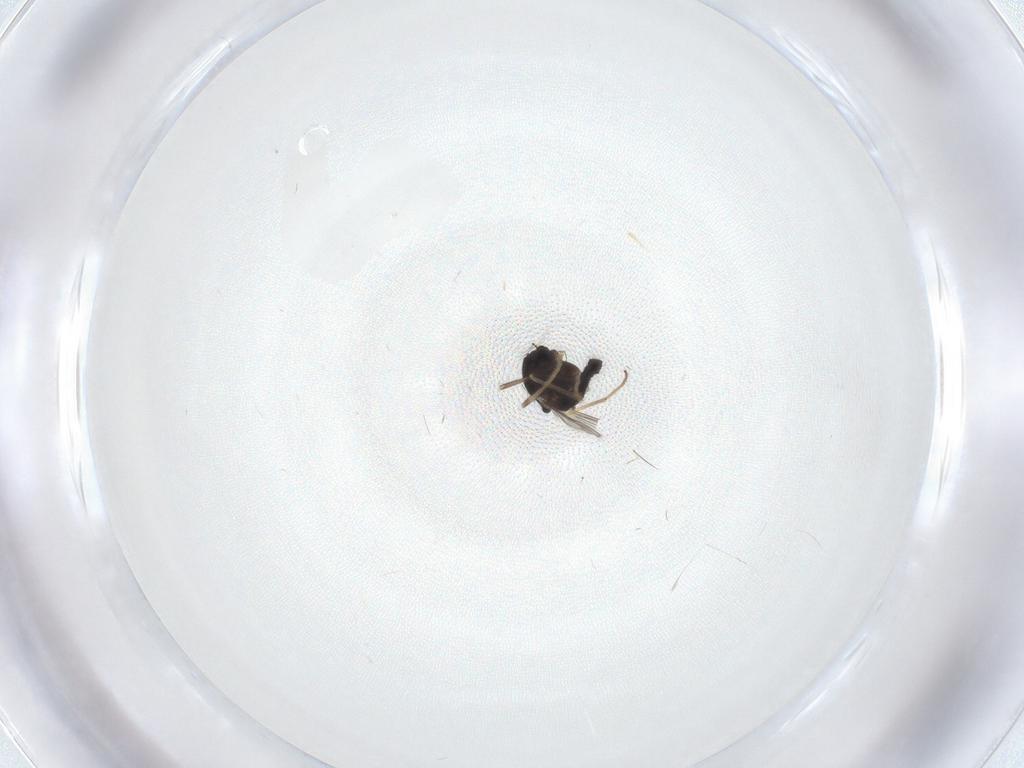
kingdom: Animalia
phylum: Arthropoda
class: Insecta
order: Diptera
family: Chironomidae
